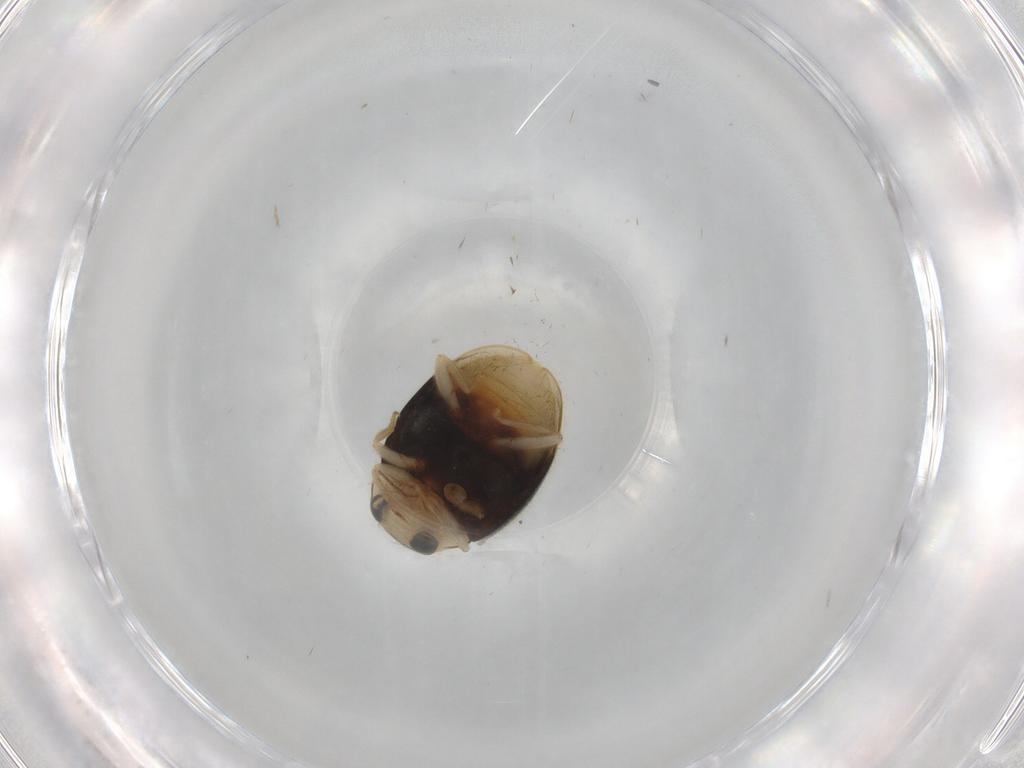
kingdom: Animalia
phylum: Arthropoda
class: Insecta
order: Coleoptera
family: Coccinellidae
